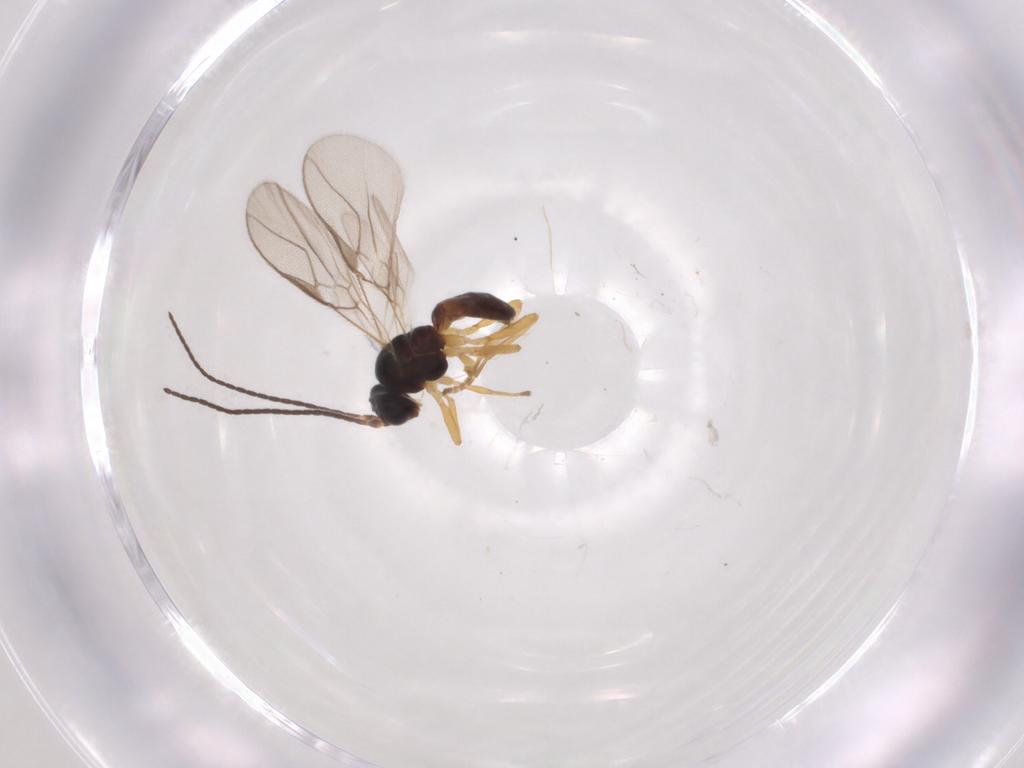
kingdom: Animalia
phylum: Arthropoda
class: Insecta
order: Hymenoptera
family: Braconidae
